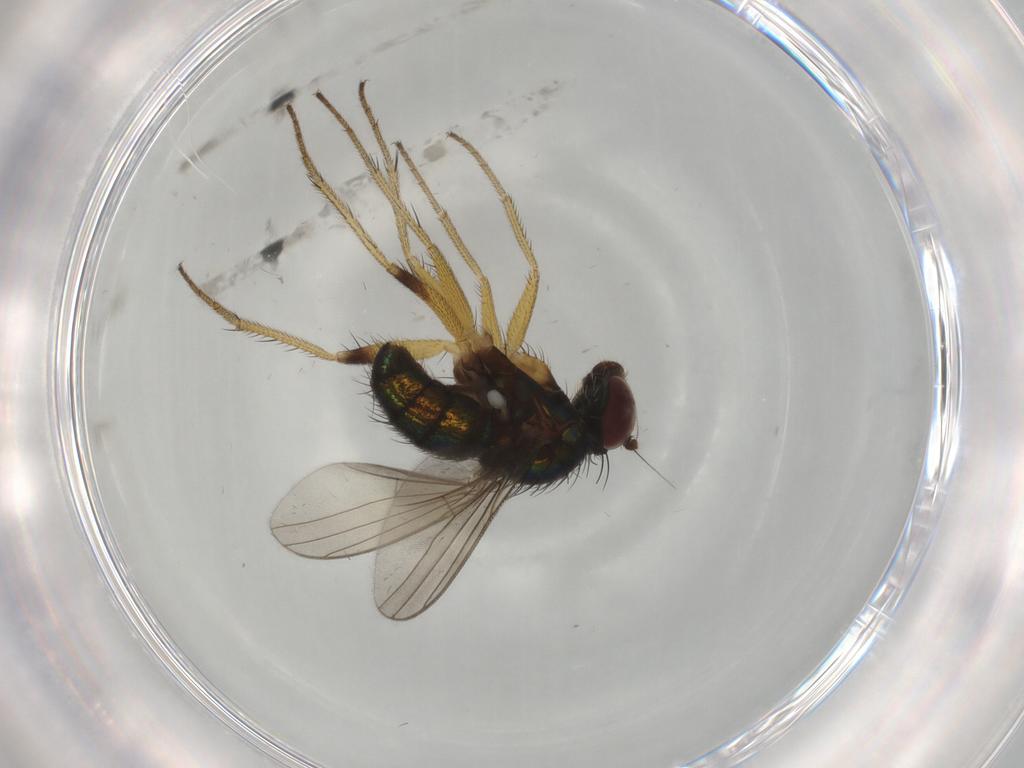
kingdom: Animalia
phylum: Arthropoda
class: Insecta
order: Diptera
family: Dolichopodidae
